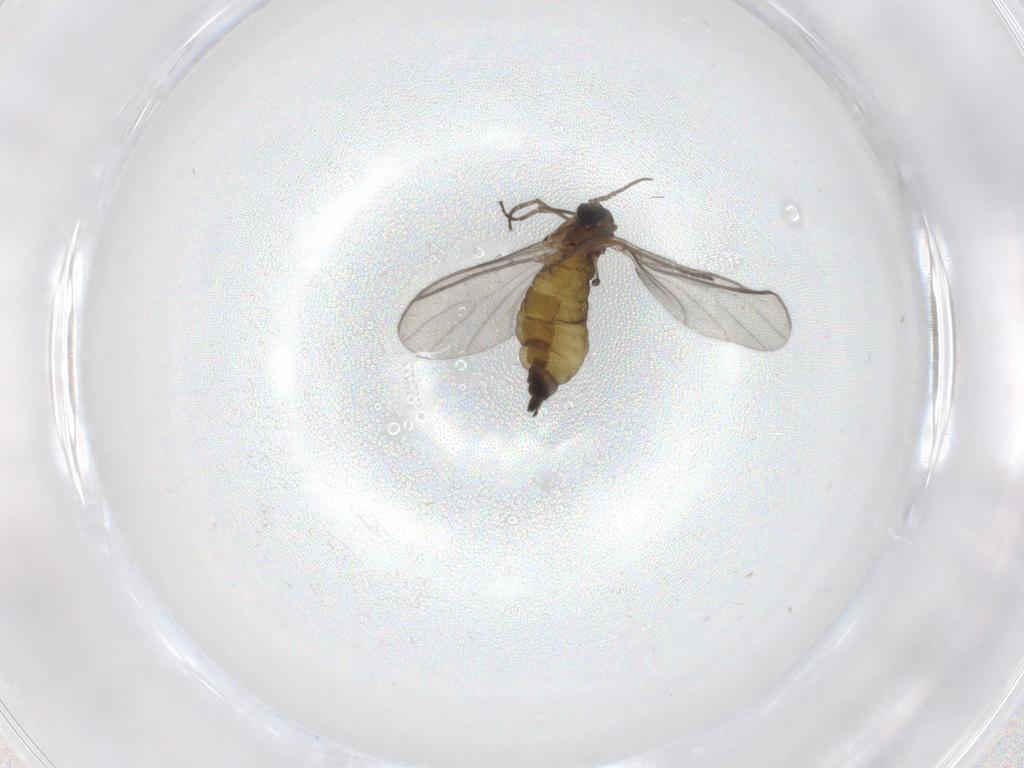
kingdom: Animalia
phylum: Arthropoda
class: Insecta
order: Diptera
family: Sciaridae
